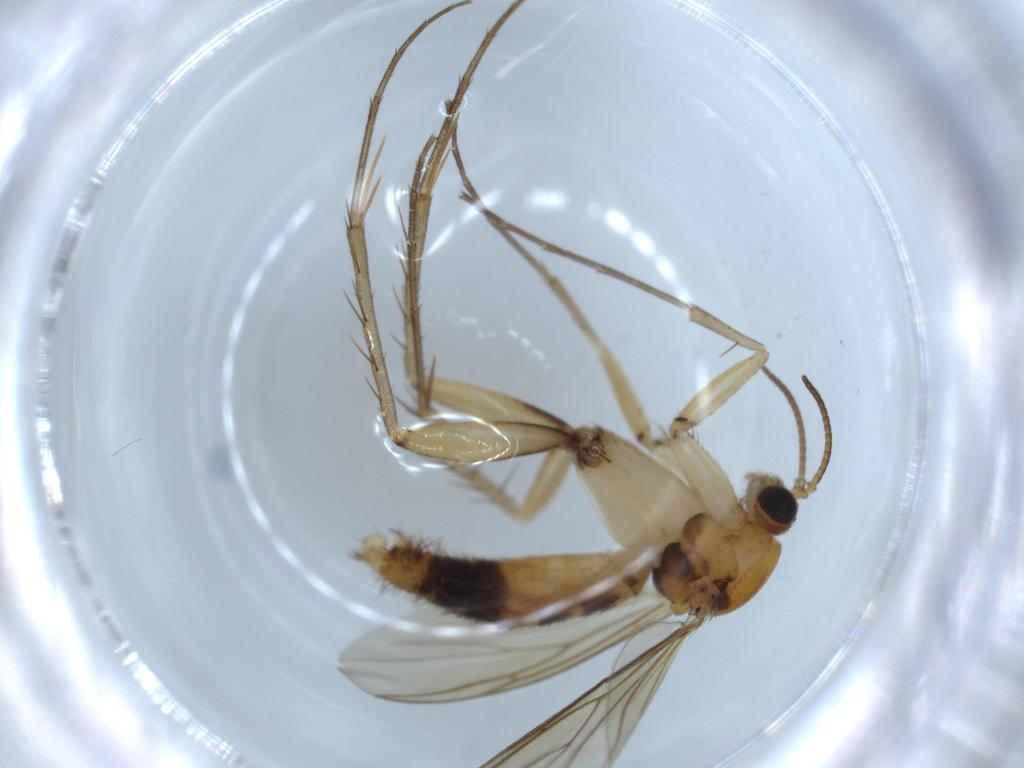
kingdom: Animalia
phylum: Arthropoda
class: Insecta
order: Diptera
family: Mycetophilidae
